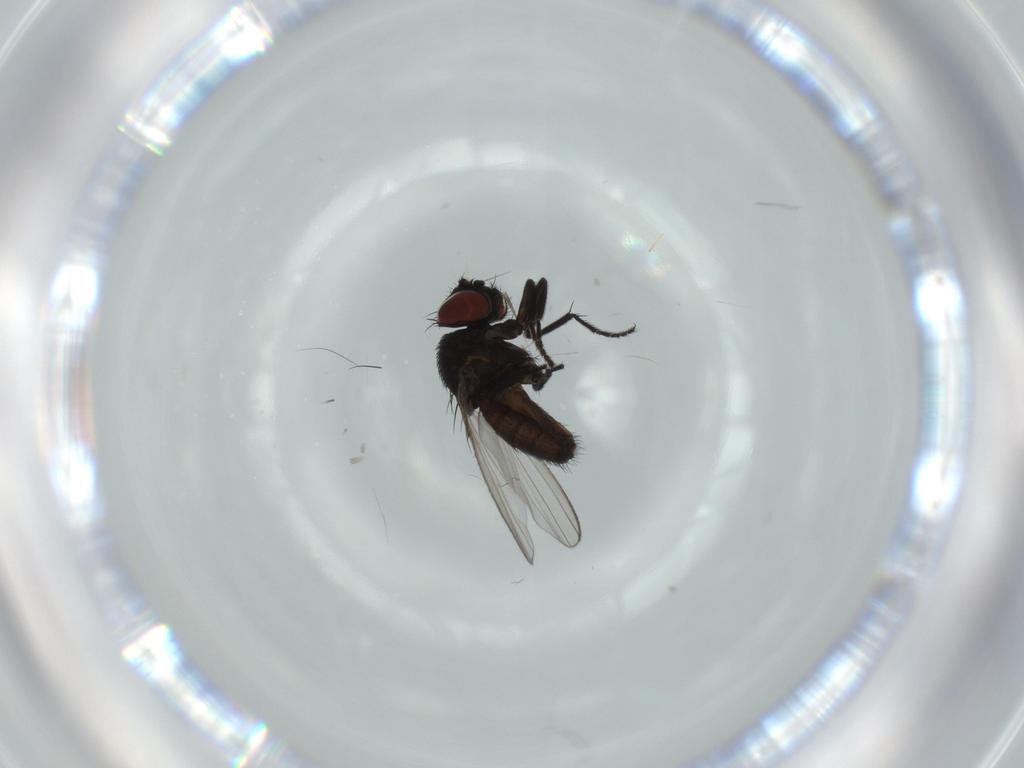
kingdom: Animalia
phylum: Arthropoda
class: Insecta
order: Diptera
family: Milichiidae
